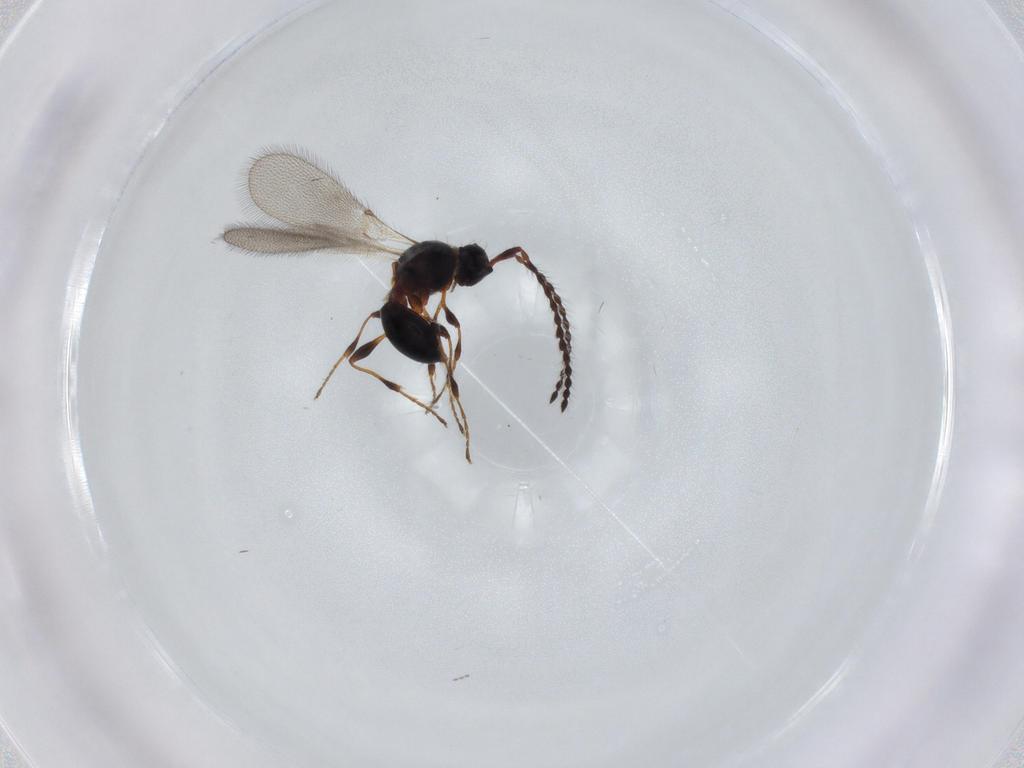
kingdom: Animalia
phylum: Arthropoda
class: Insecta
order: Hymenoptera
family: Diapriidae
